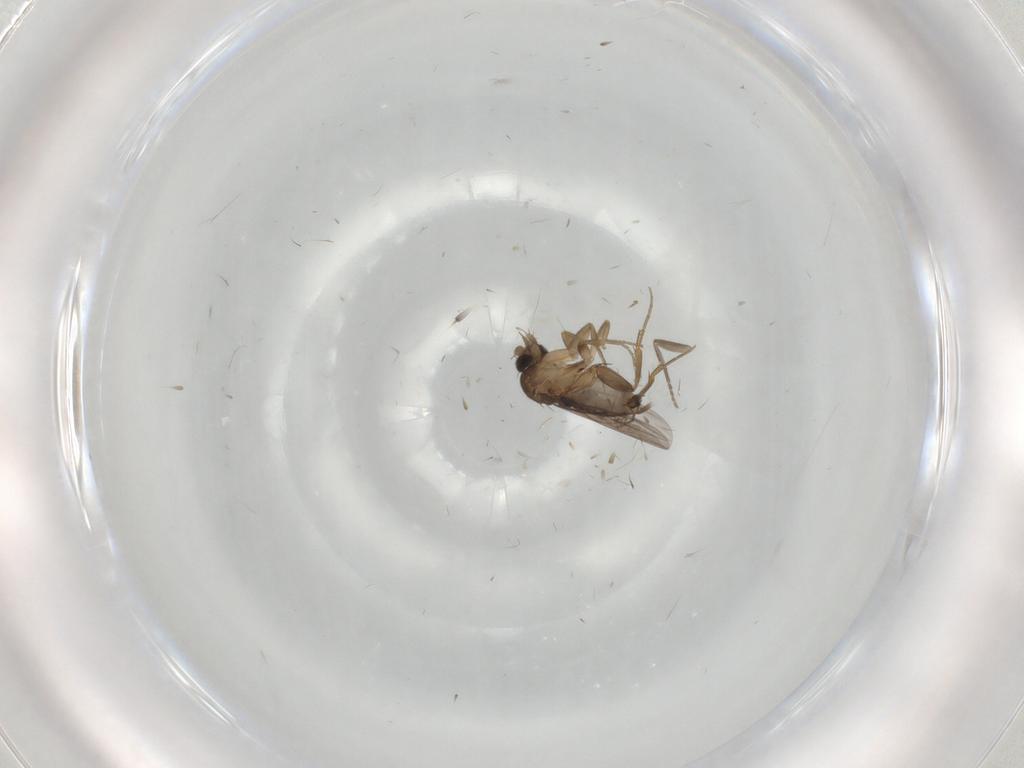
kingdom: Animalia
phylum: Arthropoda
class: Insecta
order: Diptera
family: Phoridae
